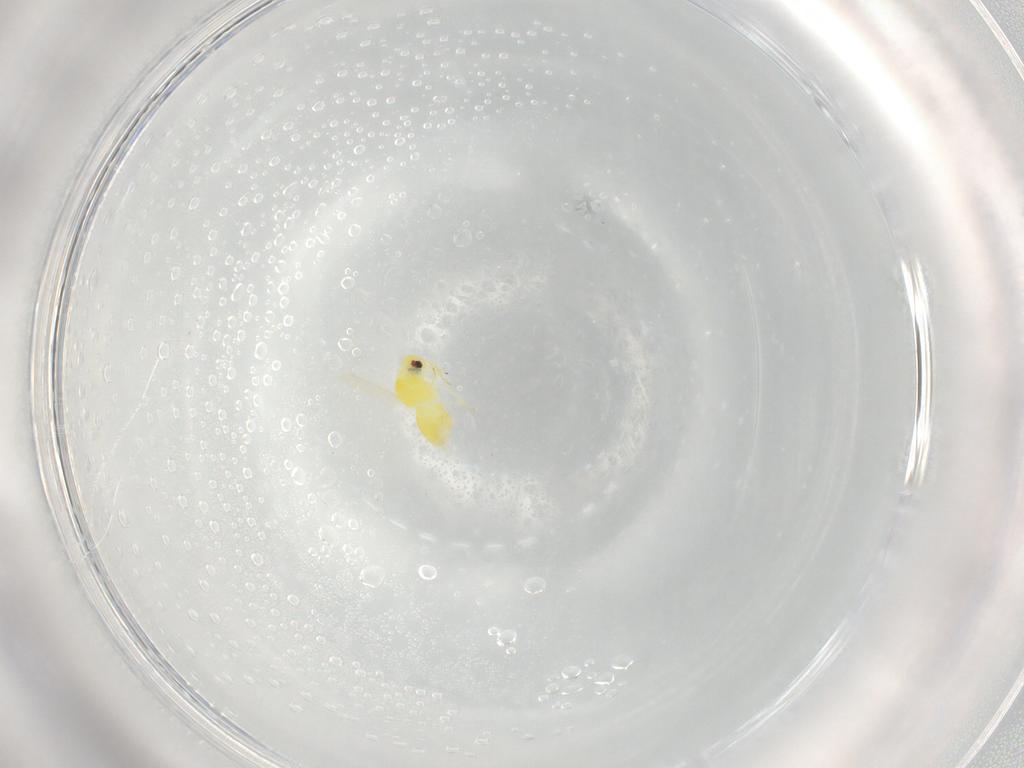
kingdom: Animalia
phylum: Arthropoda
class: Insecta
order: Hemiptera
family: Aleyrodidae
